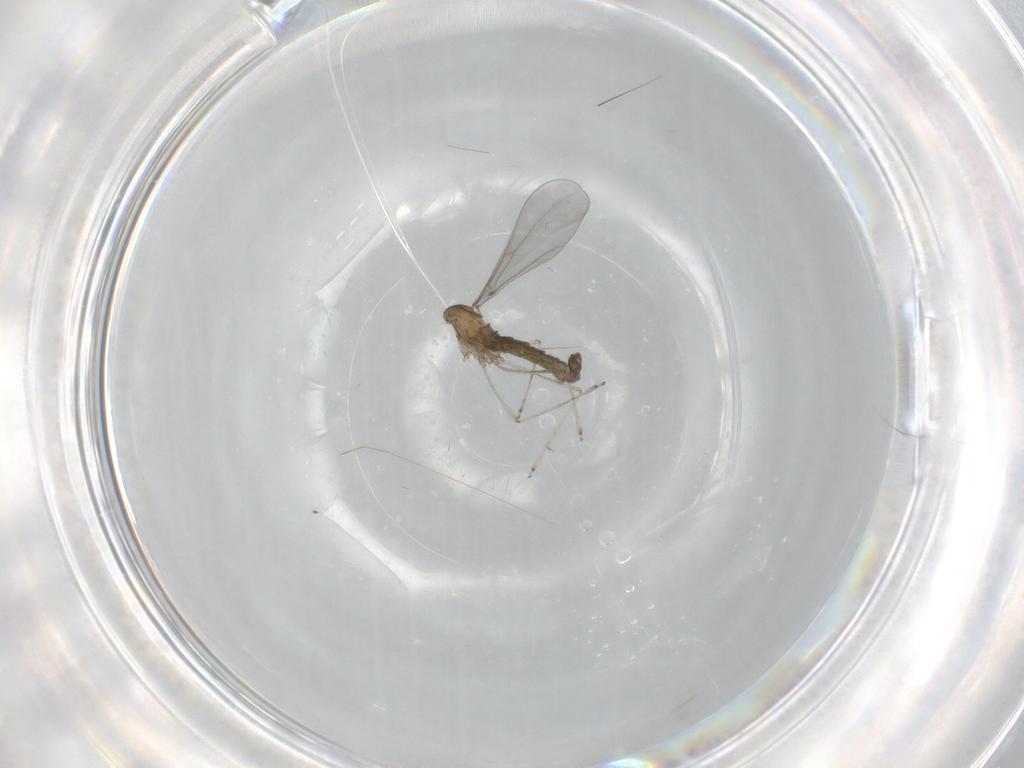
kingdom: Animalia
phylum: Arthropoda
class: Insecta
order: Diptera
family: Cecidomyiidae
